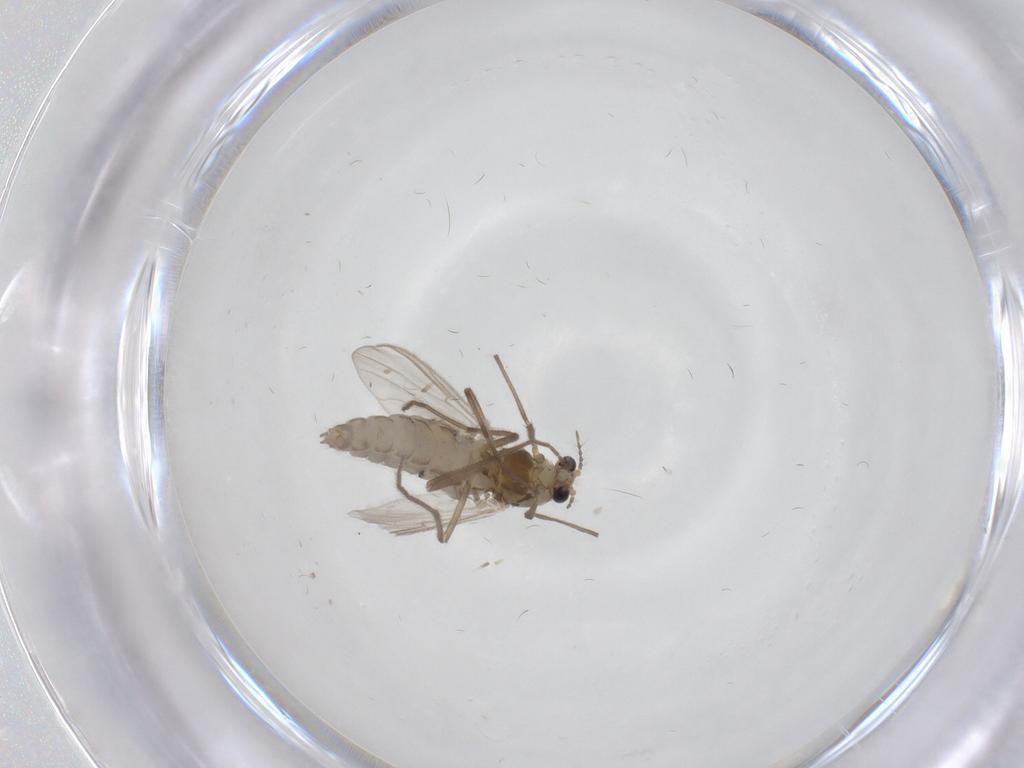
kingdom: Animalia
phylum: Arthropoda
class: Insecta
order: Diptera
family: Chironomidae
